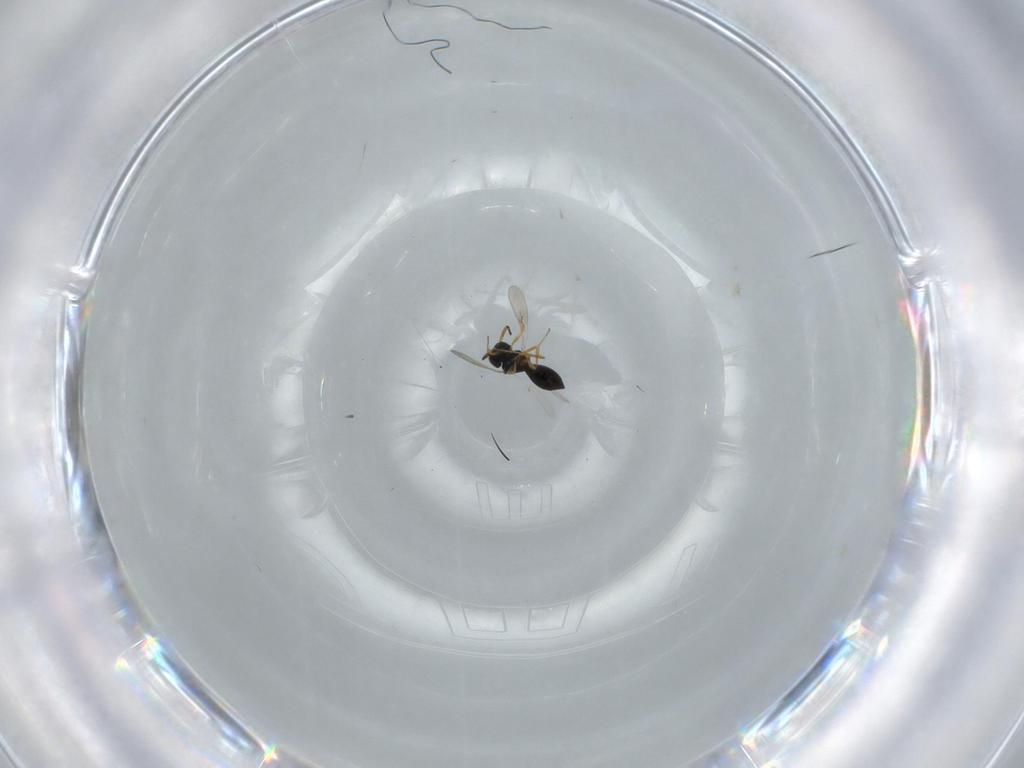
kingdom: Animalia
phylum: Arthropoda
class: Insecta
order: Hymenoptera
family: Scelionidae
